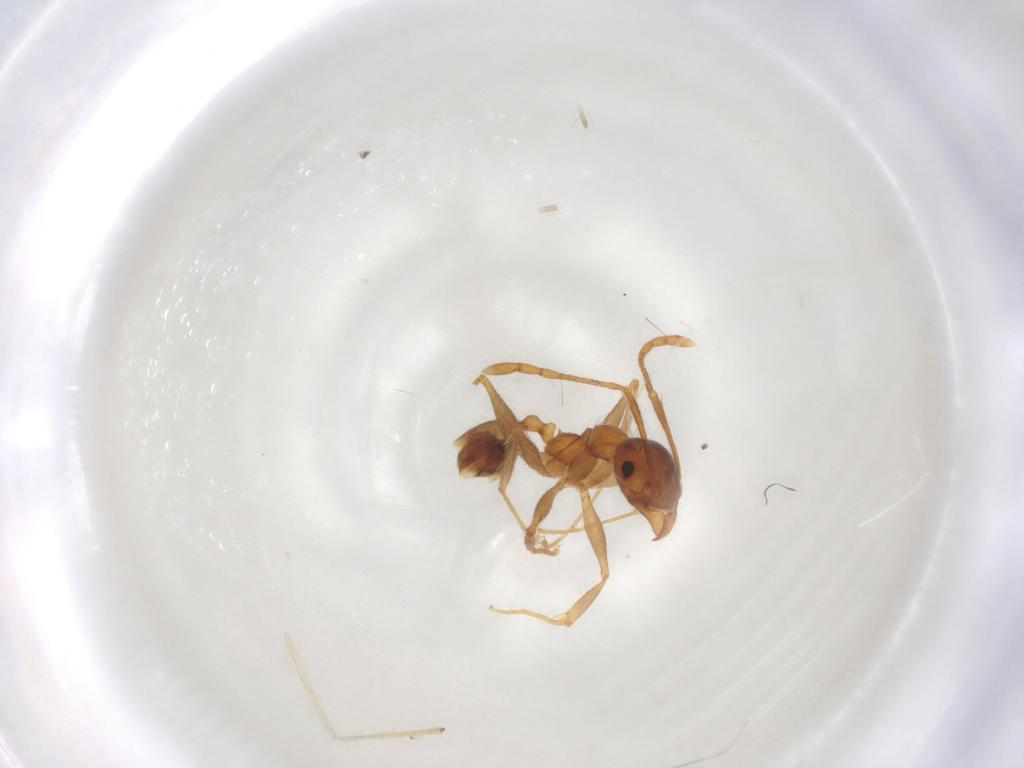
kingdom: Animalia
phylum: Arthropoda
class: Insecta
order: Hymenoptera
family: Formicidae
